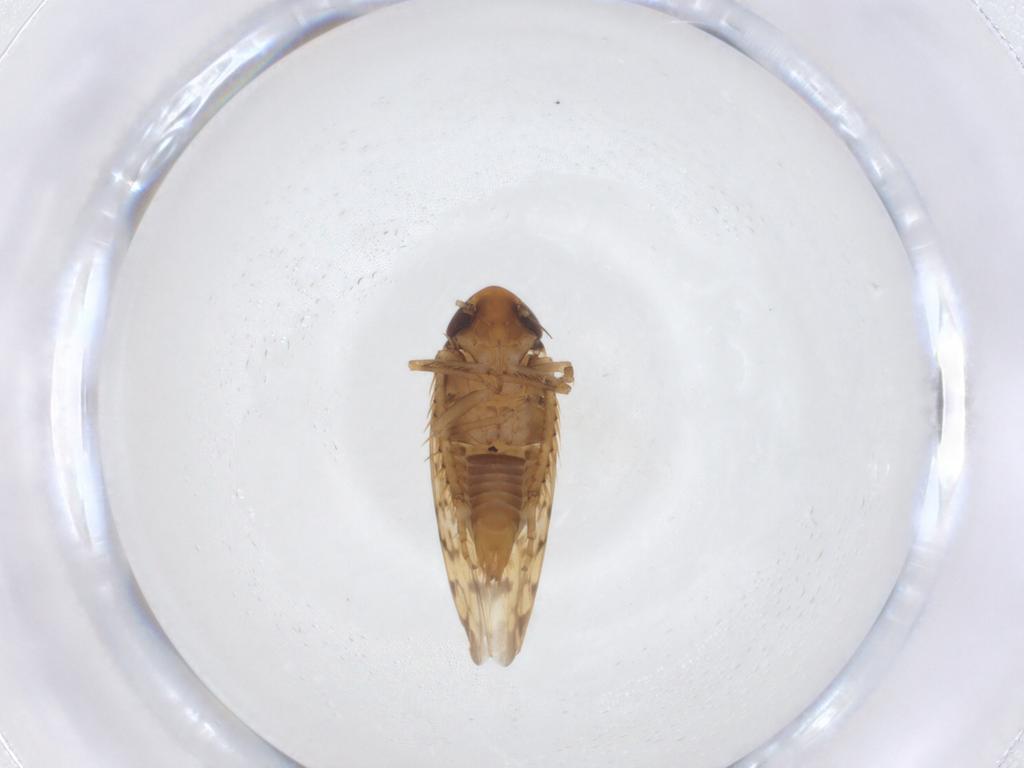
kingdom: Animalia
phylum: Arthropoda
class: Insecta
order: Hemiptera
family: Cicadellidae
